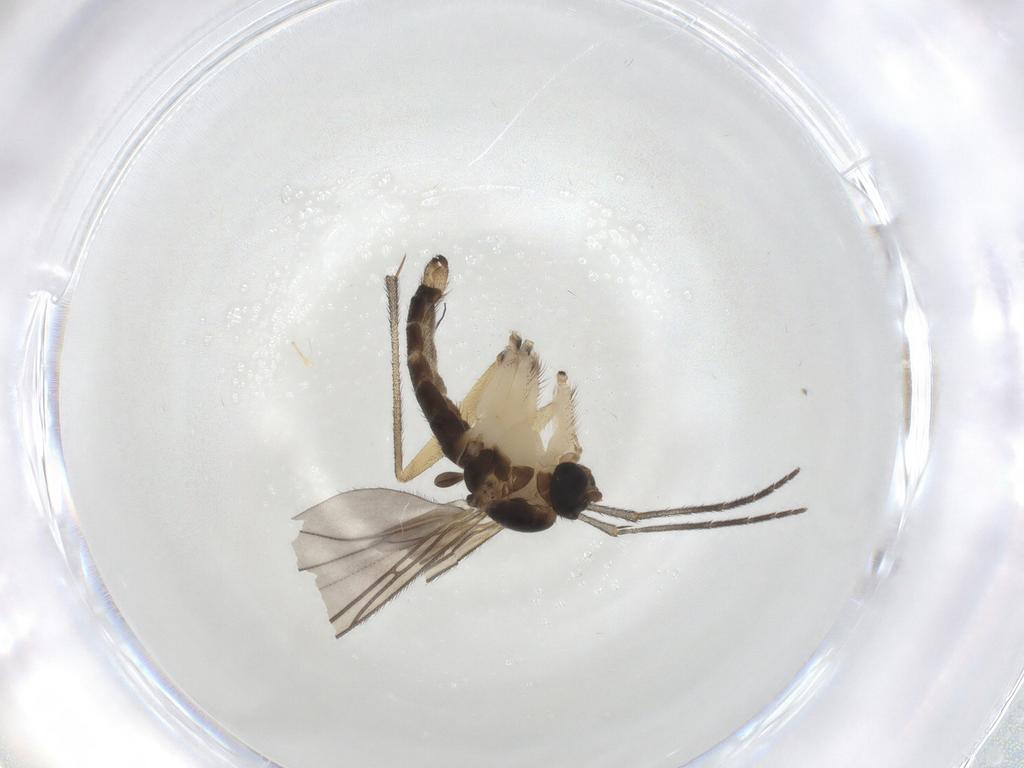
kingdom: Animalia
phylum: Arthropoda
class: Insecta
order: Diptera
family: Sciaridae
